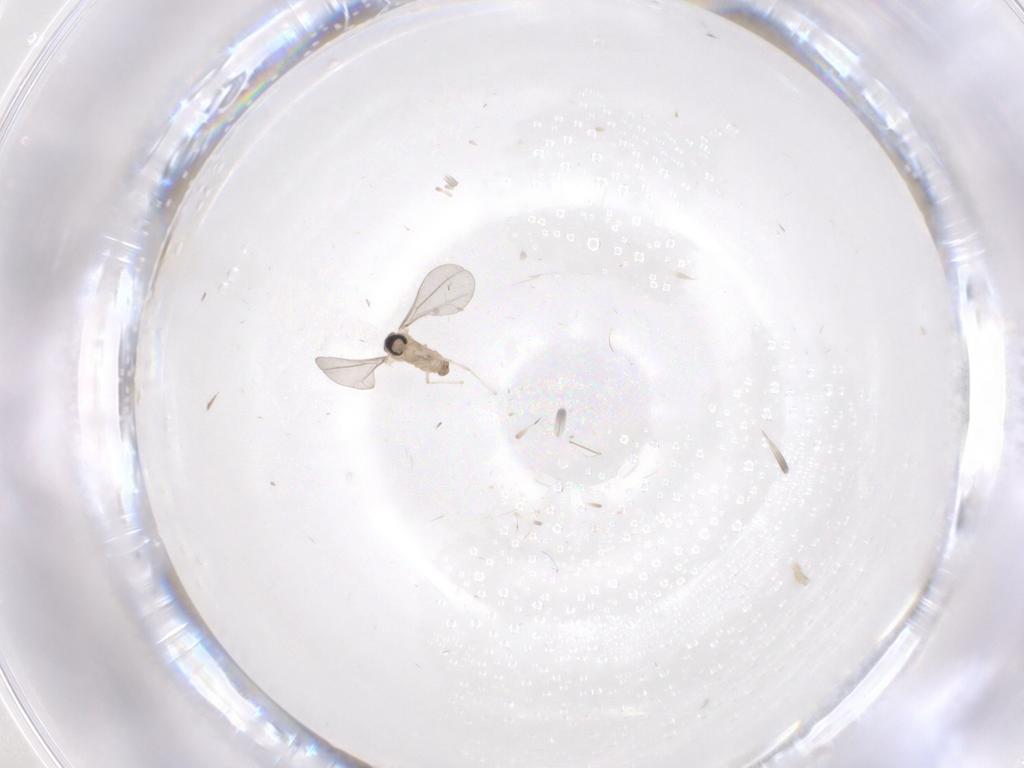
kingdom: Animalia
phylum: Arthropoda
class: Insecta
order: Diptera
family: Cecidomyiidae
